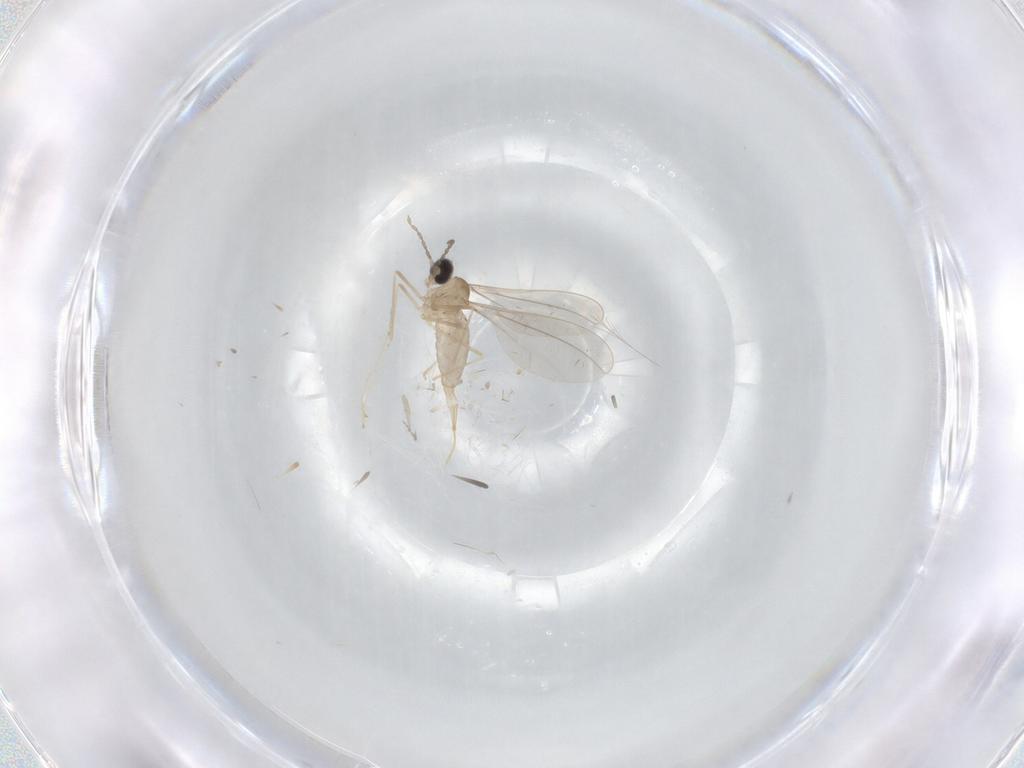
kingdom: Animalia
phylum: Arthropoda
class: Insecta
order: Diptera
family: Cecidomyiidae
